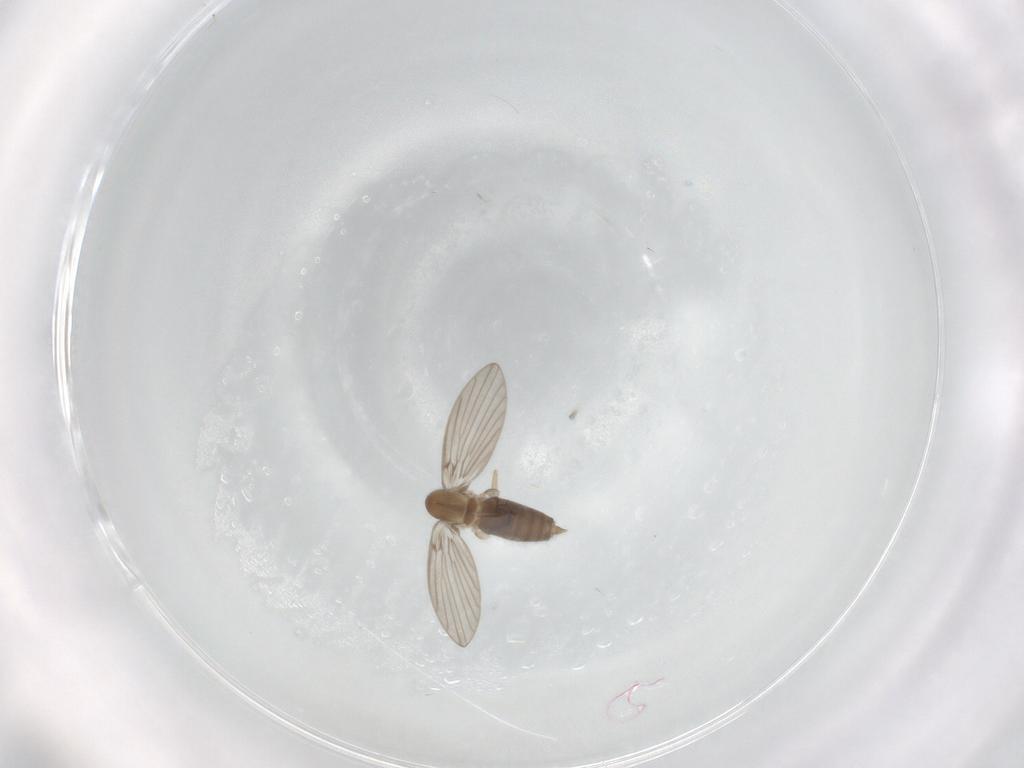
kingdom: Animalia
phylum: Arthropoda
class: Insecta
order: Diptera
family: Psychodidae
